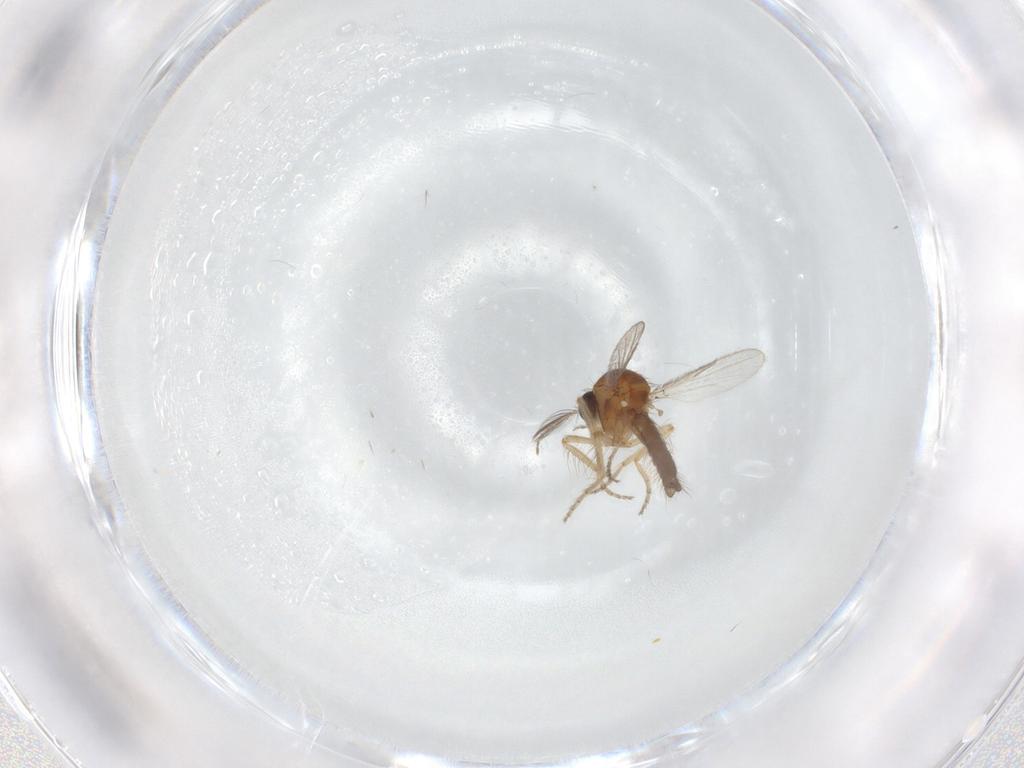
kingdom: Animalia
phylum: Arthropoda
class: Insecta
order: Diptera
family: Ceratopogonidae
